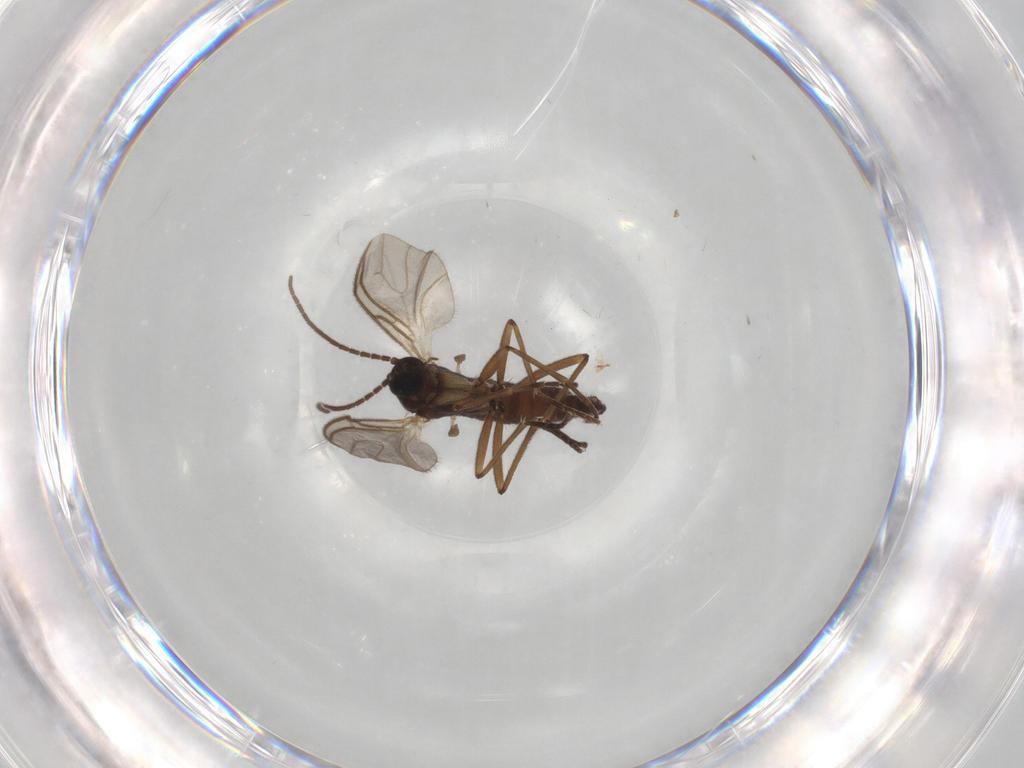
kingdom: Animalia
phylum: Arthropoda
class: Insecta
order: Diptera
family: Sciaridae
